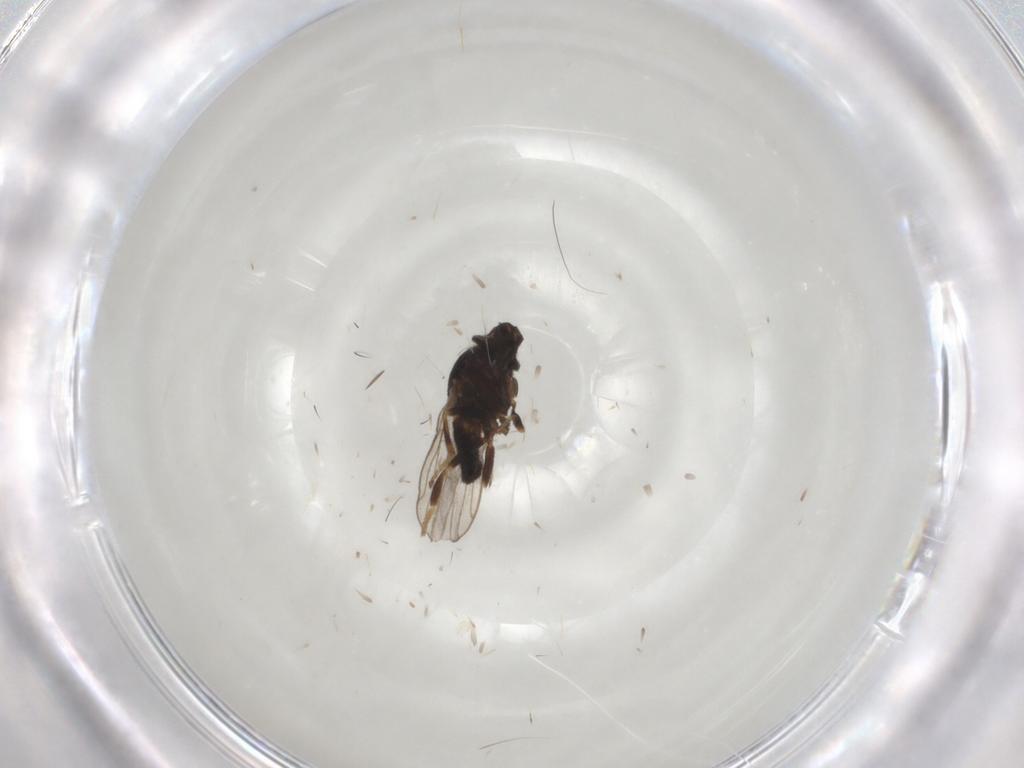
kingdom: Animalia
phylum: Arthropoda
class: Insecta
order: Diptera
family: Chloropidae
